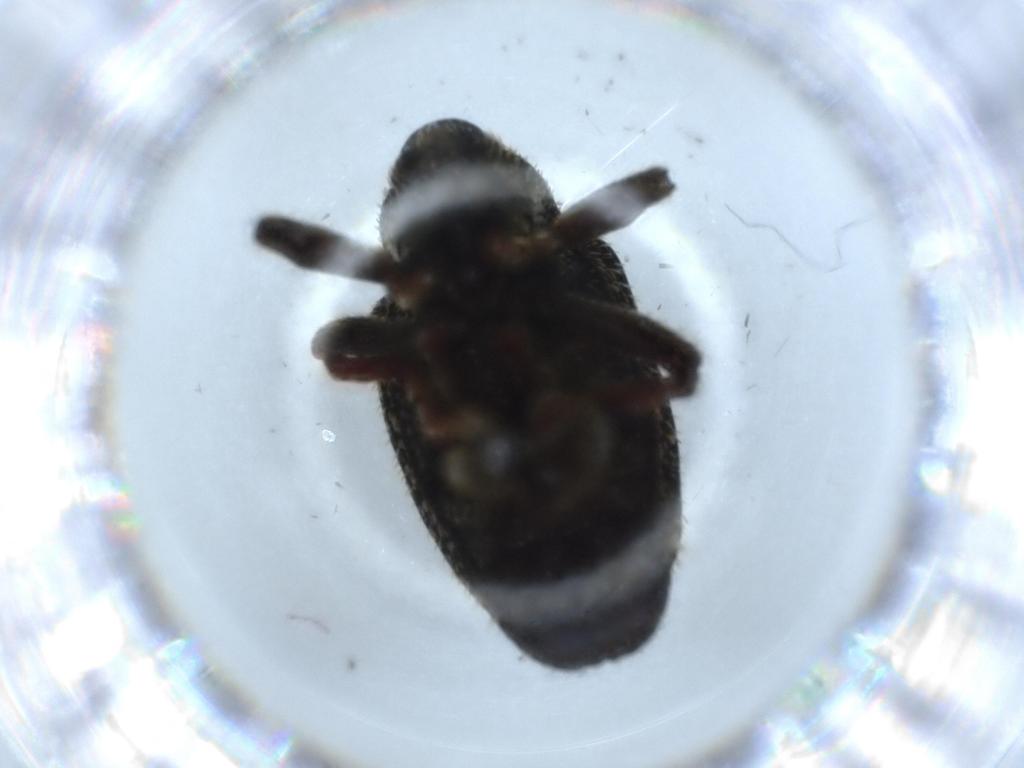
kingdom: Animalia
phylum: Arthropoda
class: Insecta
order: Coleoptera
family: Curculionidae
